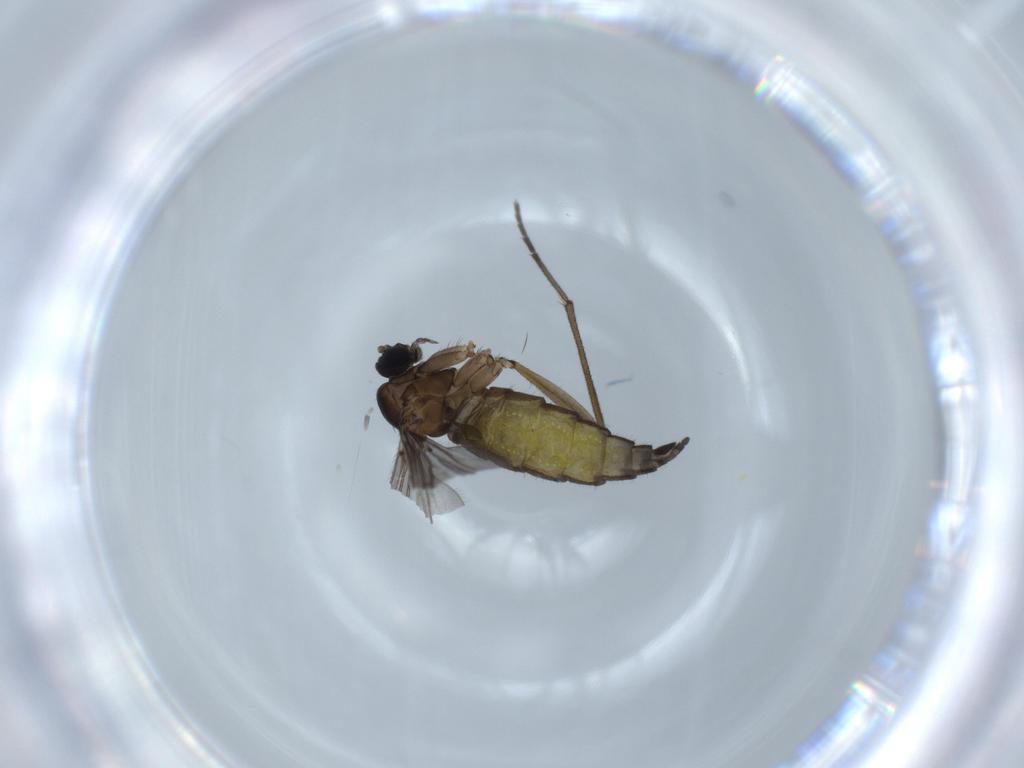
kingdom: Animalia
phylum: Arthropoda
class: Insecta
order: Diptera
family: Sciaridae
